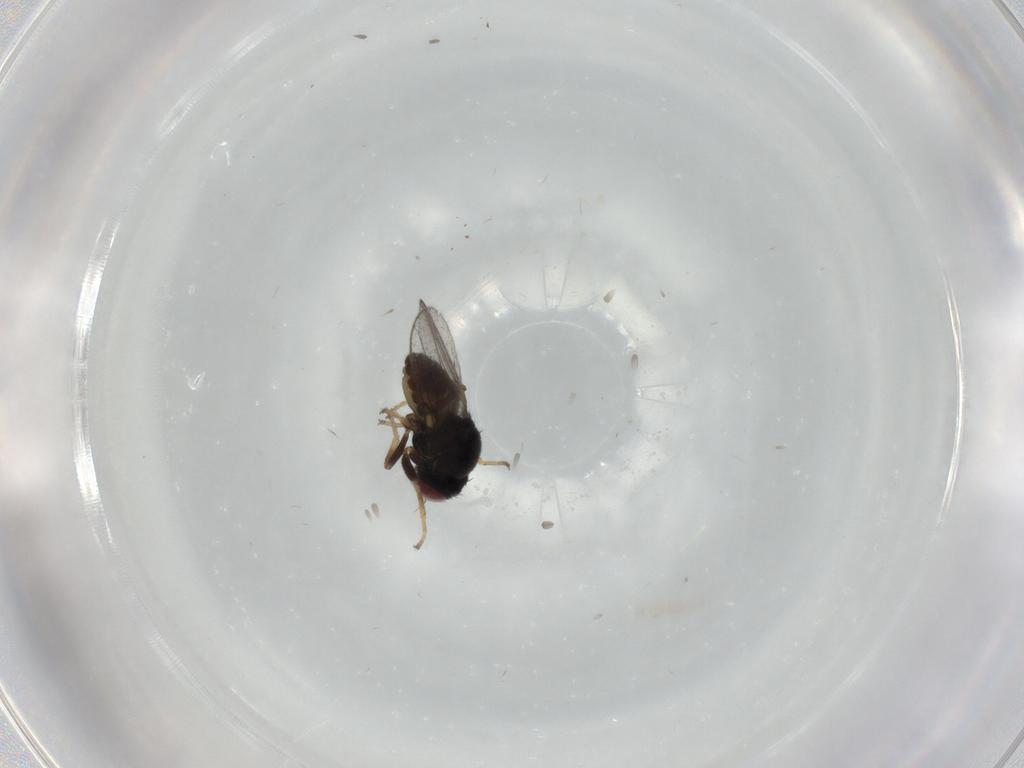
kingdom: Animalia
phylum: Arthropoda
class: Insecta
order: Diptera
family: Chloropidae
